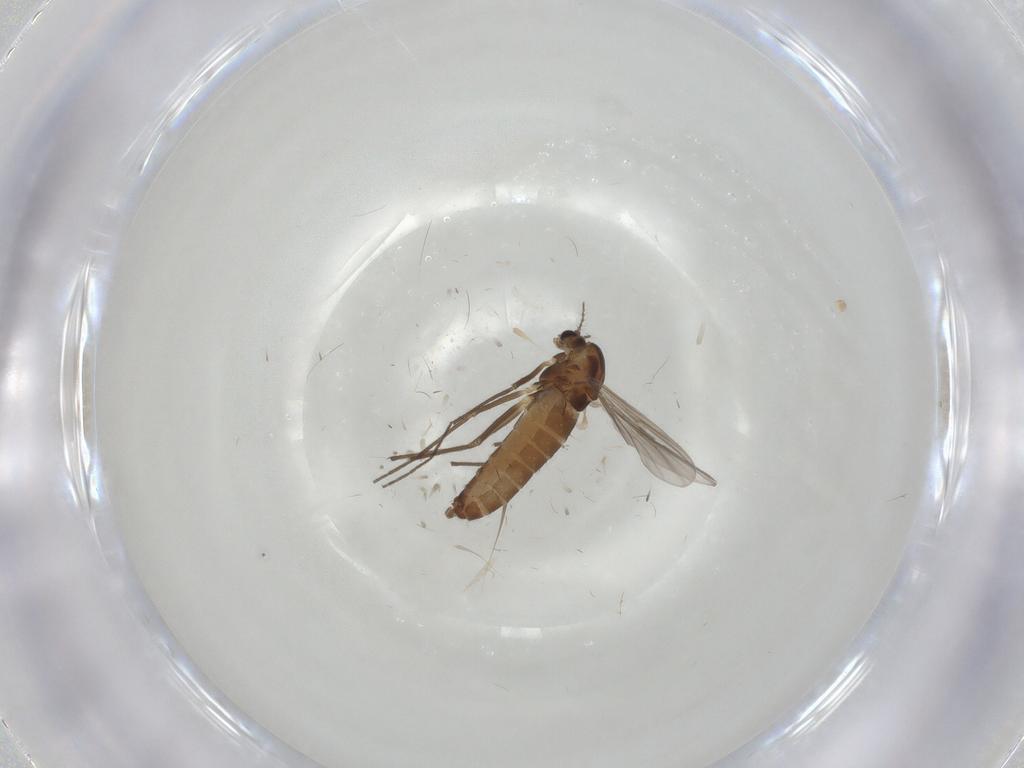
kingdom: Animalia
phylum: Arthropoda
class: Insecta
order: Diptera
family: Chironomidae
